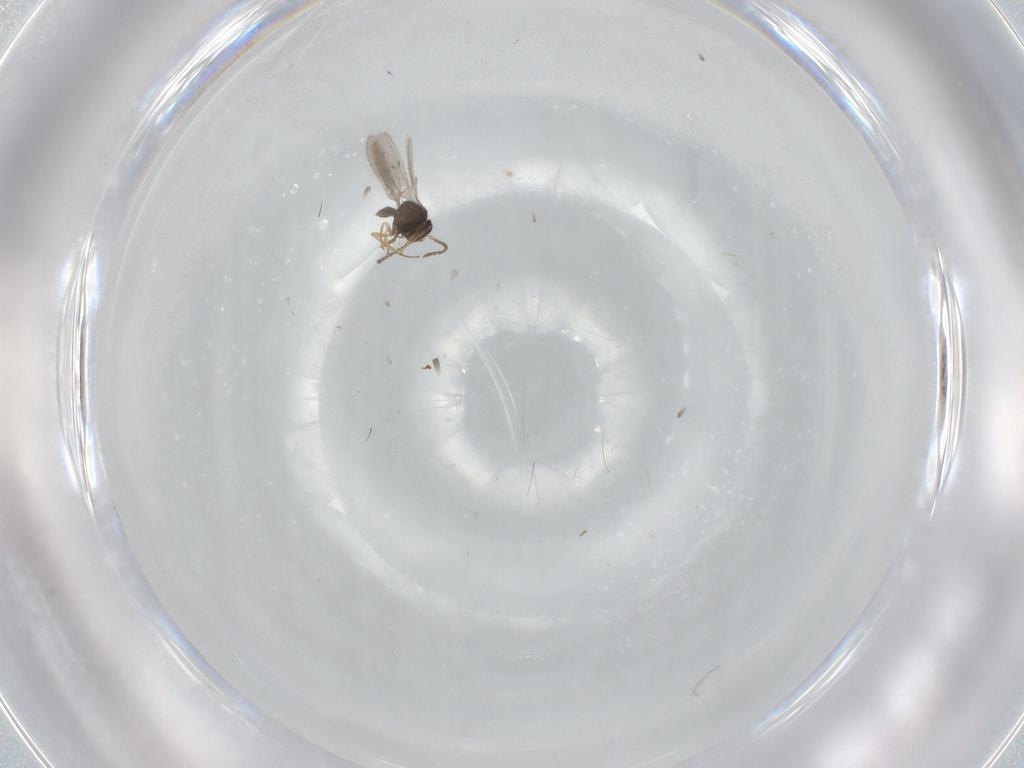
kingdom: Animalia
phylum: Arthropoda
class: Insecta
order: Hymenoptera
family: Scelionidae
